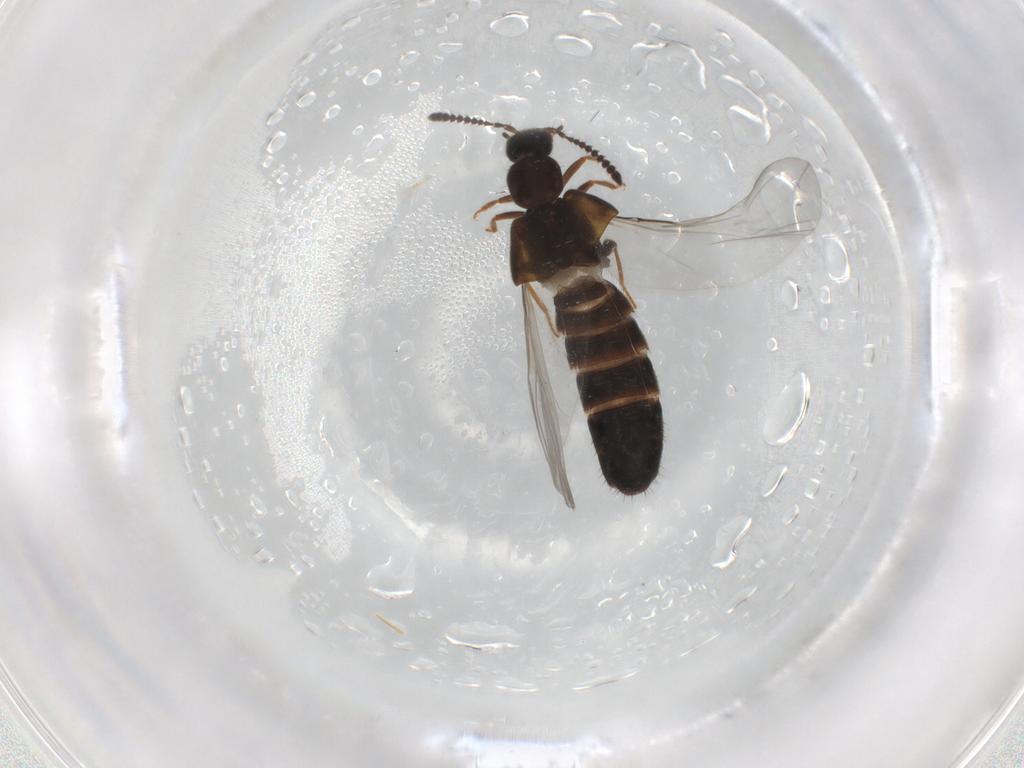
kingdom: Animalia
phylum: Arthropoda
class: Insecta
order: Coleoptera
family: Staphylinidae
